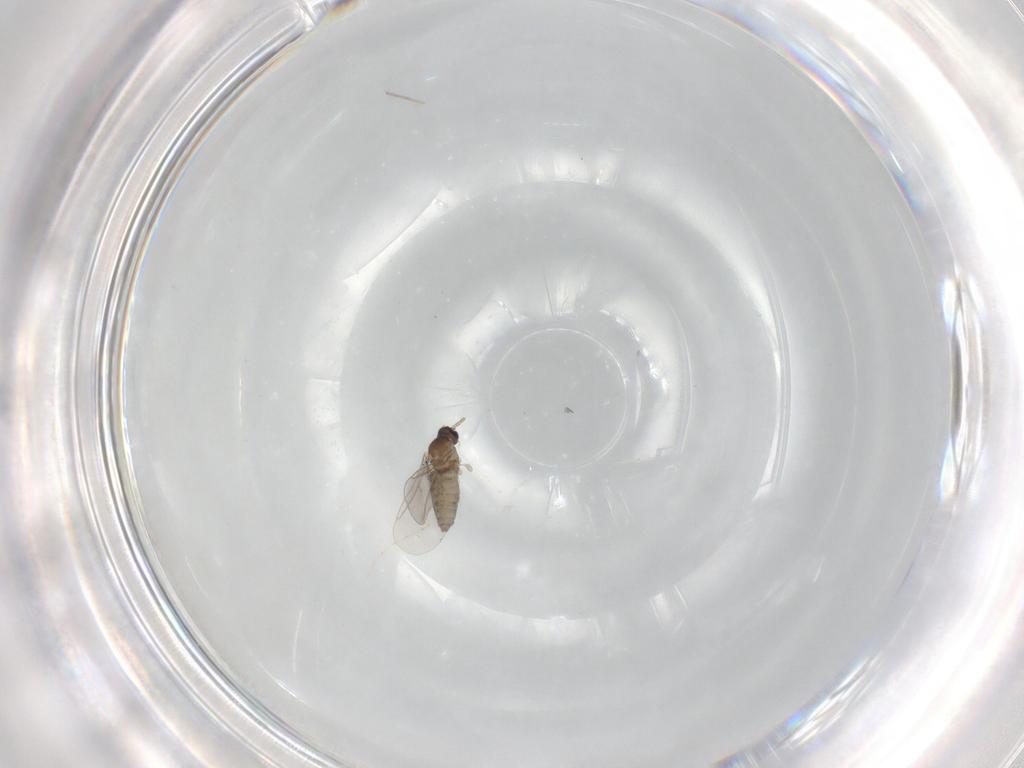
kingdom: Animalia
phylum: Arthropoda
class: Insecta
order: Diptera
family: Cecidomyiidae
